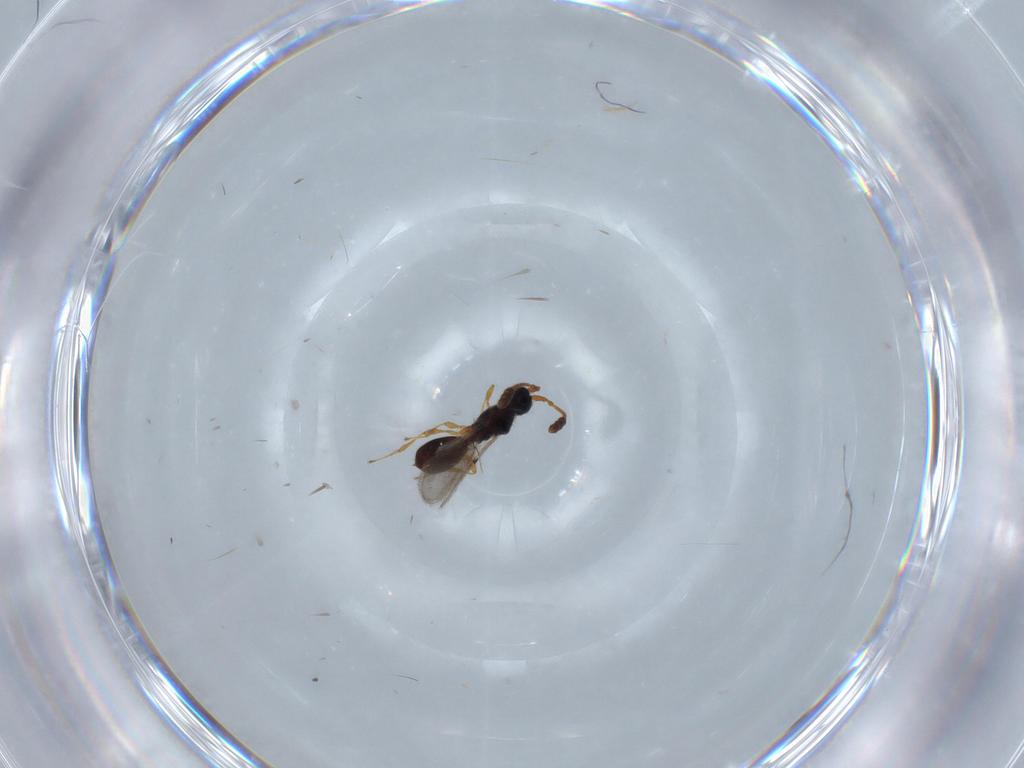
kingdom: Animalia
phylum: Arthropoda
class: Insecta
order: Hymenoptera
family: Diapriidae
